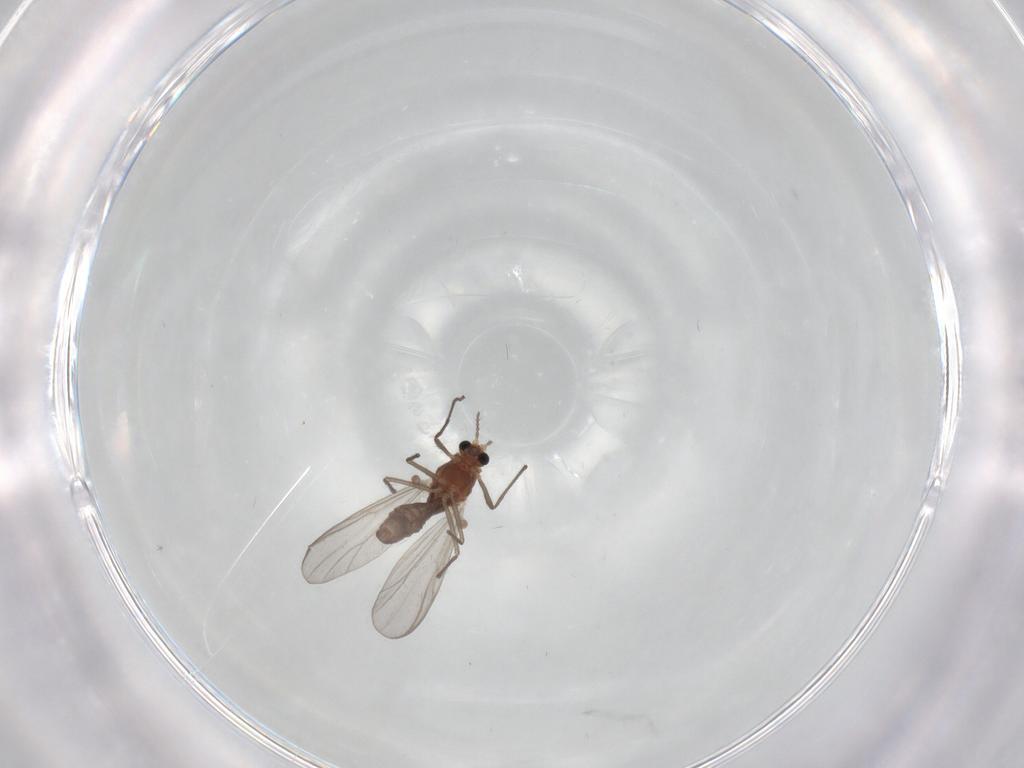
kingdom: Animalia
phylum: Arthropoda
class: Insecta
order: Diptera
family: Chironomidae
